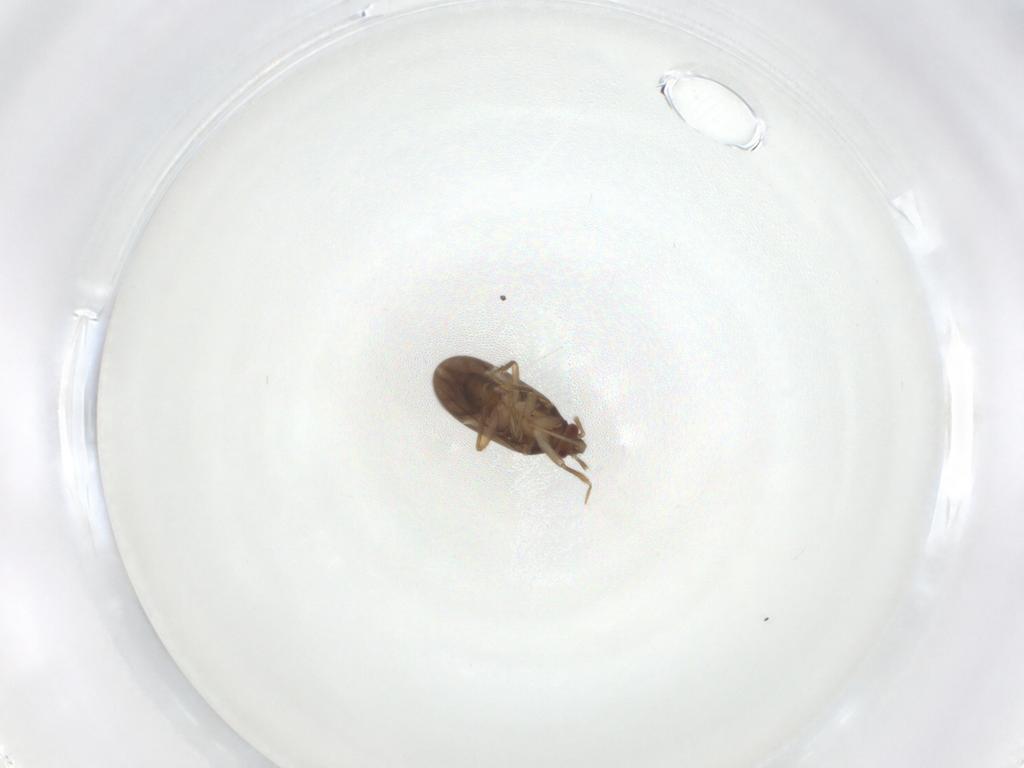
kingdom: Animalia
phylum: Arthropoda
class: Insecta
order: Hemiptera
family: Ceratocombidae
